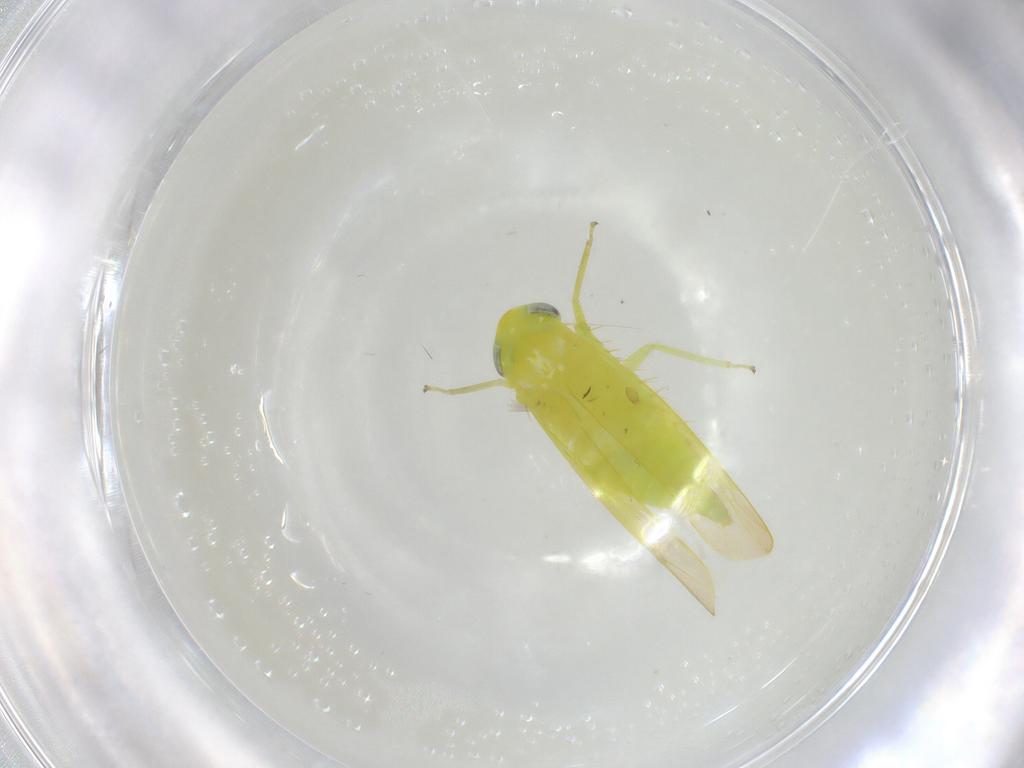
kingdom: Animalia
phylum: Arthropoda
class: Insecta
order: Hemiptera
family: Cicadellidae
